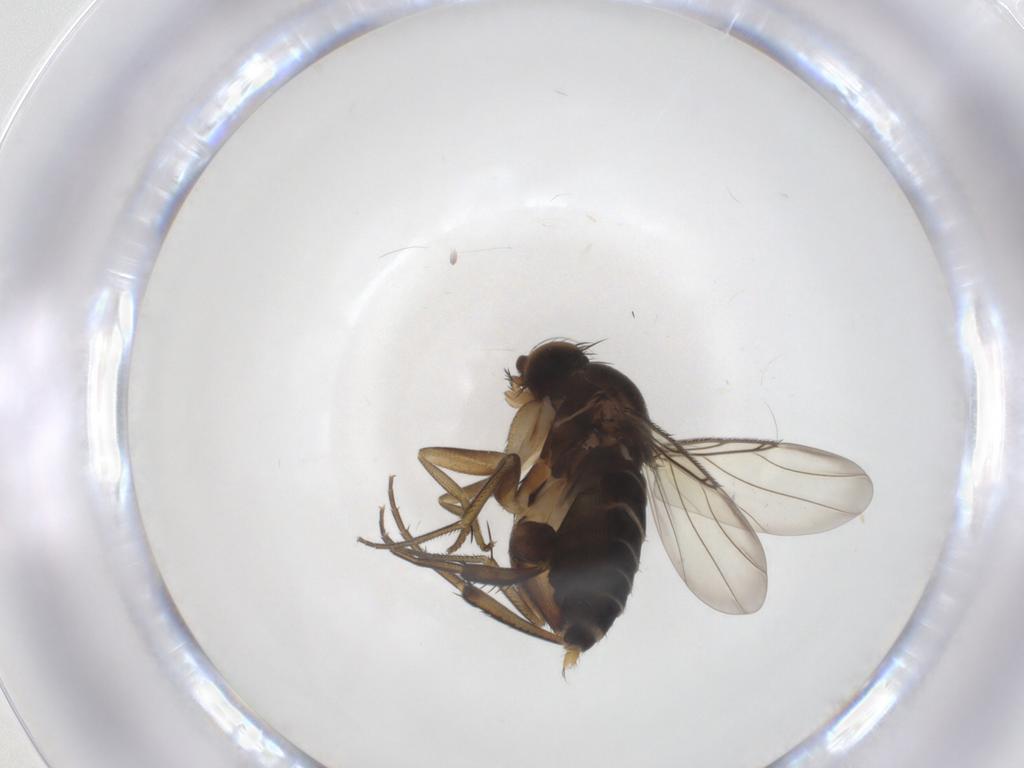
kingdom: Animalia
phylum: Arthropoda
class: Insecta
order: Diptera
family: Phoridae
